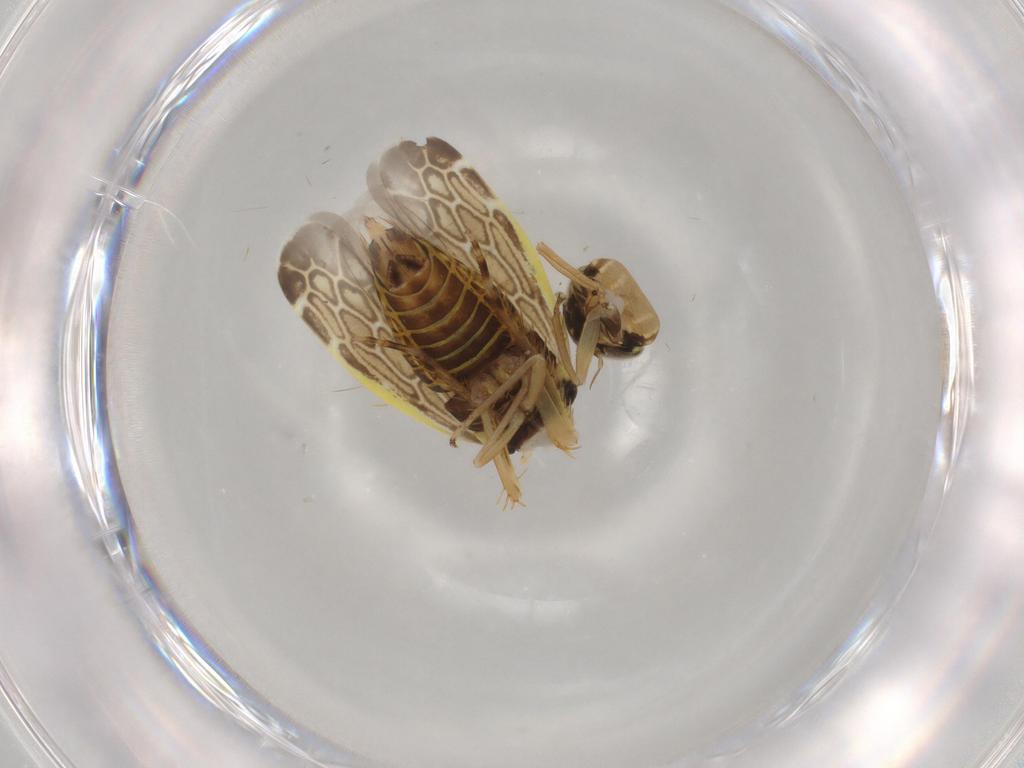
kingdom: Animalia
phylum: Arthropoda
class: Insecta
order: Hemiptera
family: Cicadellidae
